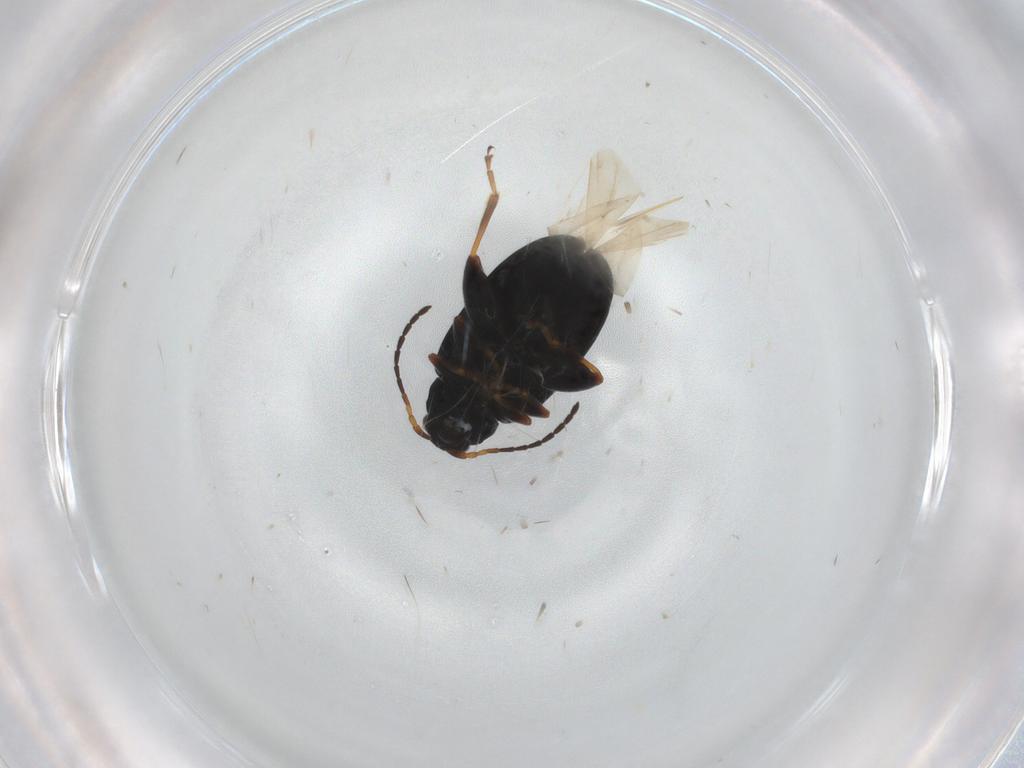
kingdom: Animalia
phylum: Arthropoda
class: Insecta
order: Coleoptera
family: Chrysomelidae
